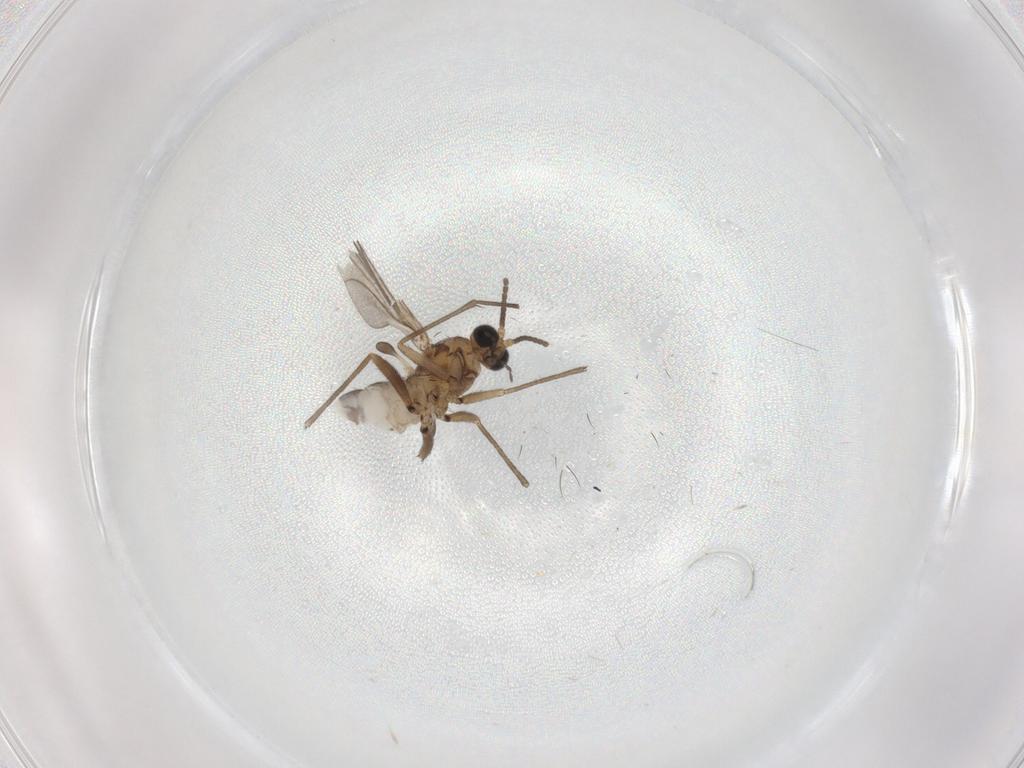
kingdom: Animalia
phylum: Arthropoda
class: Insecta
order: Diptera
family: Sciaridae
